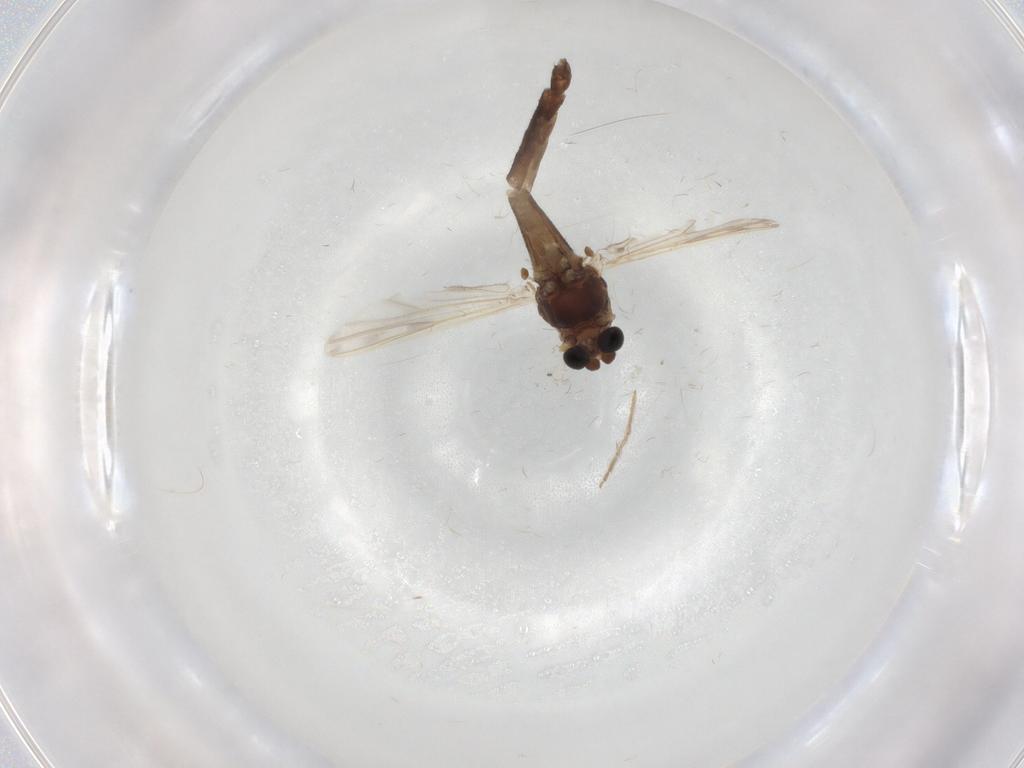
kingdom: Animalia
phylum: Arthropoda
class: Insecta
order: Diptera
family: Chironomidae
